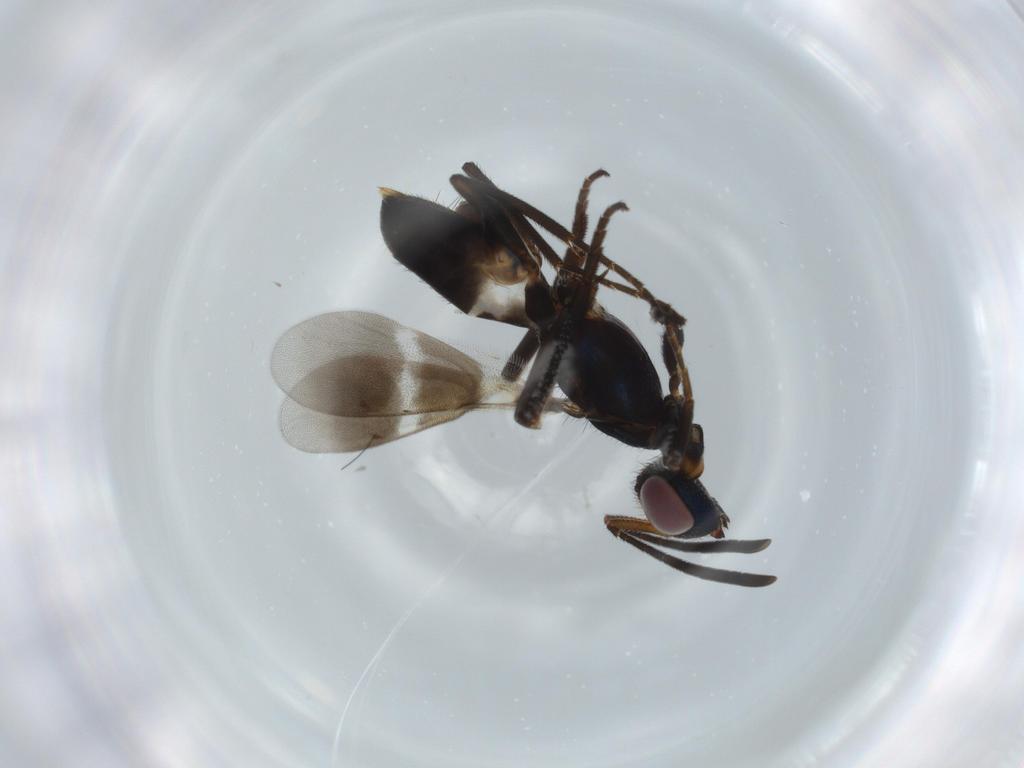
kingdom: Animalia
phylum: Arthropoda
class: Insecta
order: Hymenoptera
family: Eupelmidae
